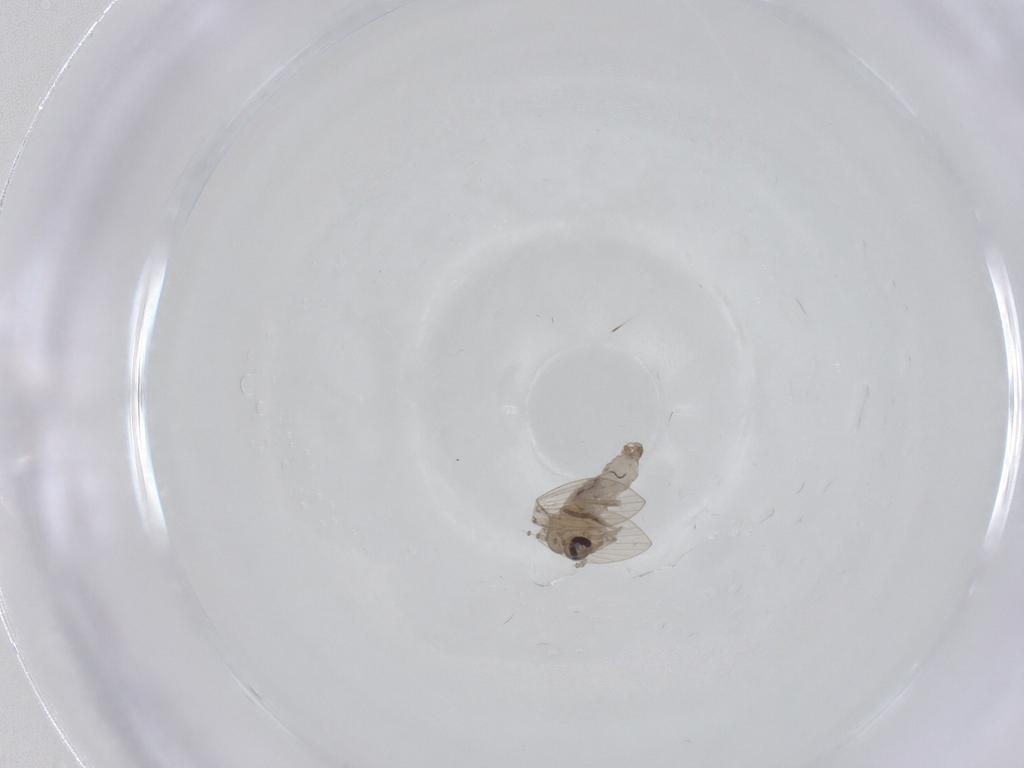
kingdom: Animalia
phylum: Arthropoda
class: Insecta
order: Diptera
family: Psychodidae
